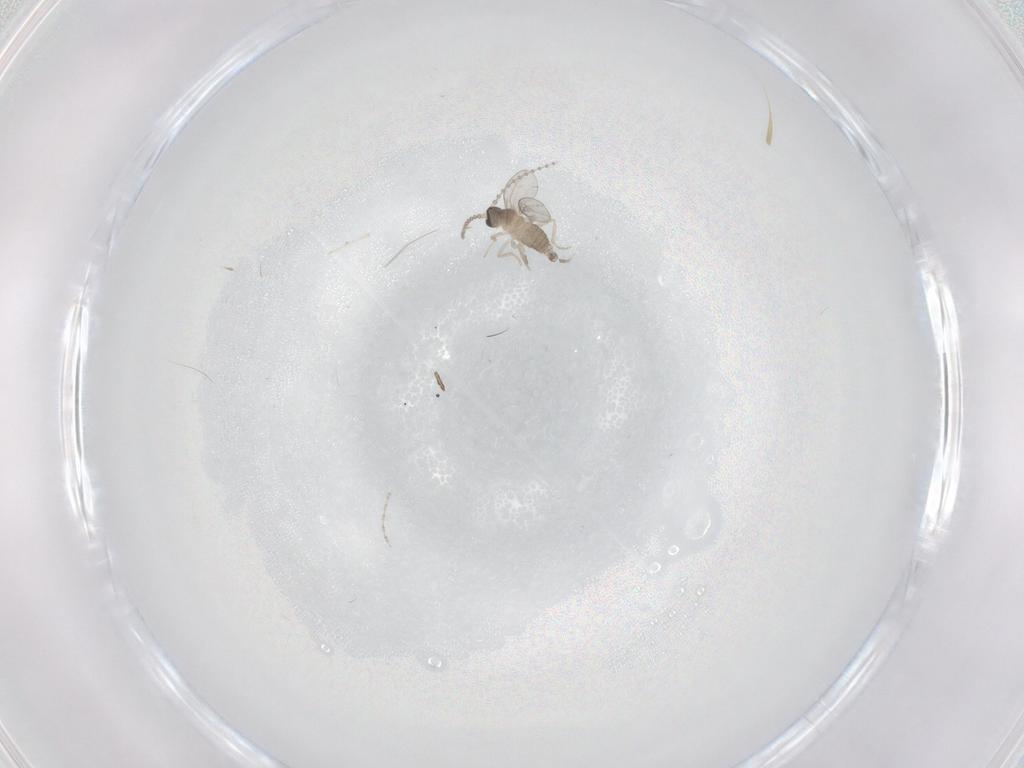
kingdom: Animalia
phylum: Arthropoda
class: Insecta
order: Diptera
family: Cecidomyiidae
